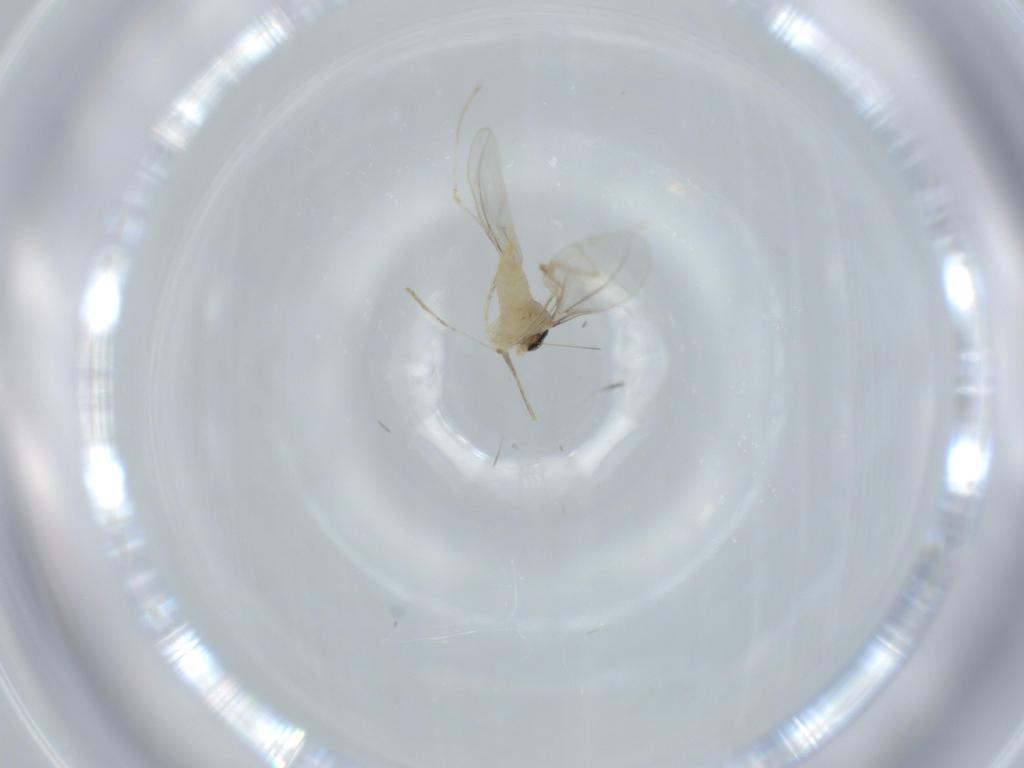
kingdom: Animalia
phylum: Arthropoda
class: Insecta
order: Diptera
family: Cecidomyiidae
